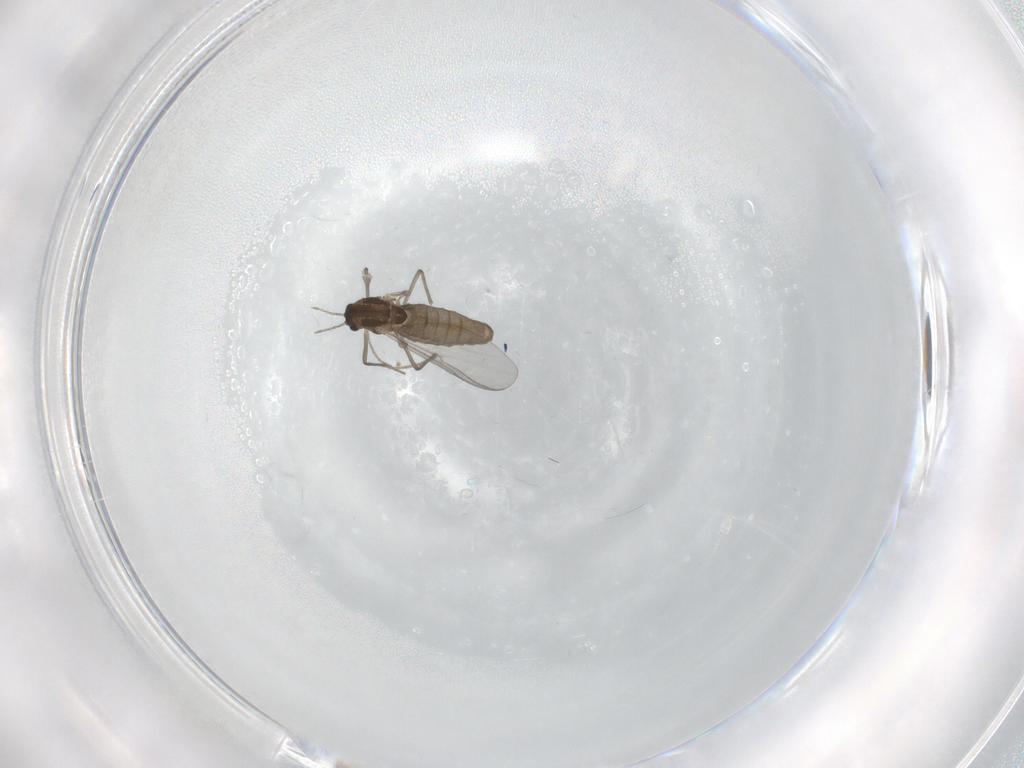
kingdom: Animalia
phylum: Arthropoda
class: Insecta
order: Diptera
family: Chironomidae
